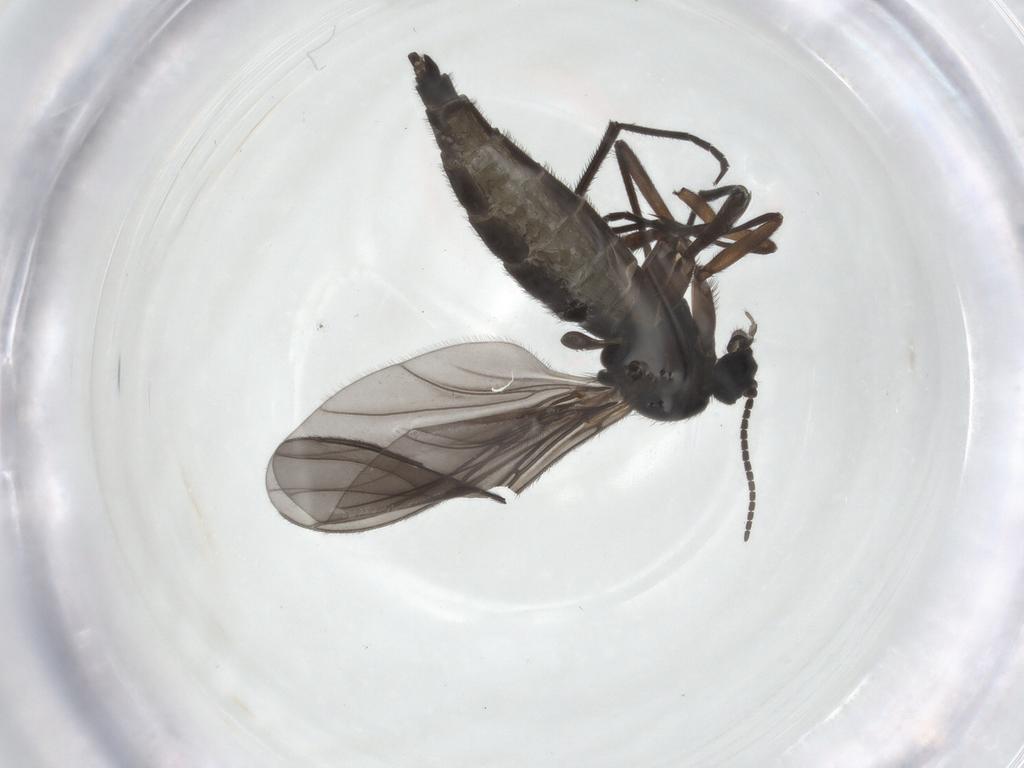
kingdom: Animalia
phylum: Arthropoda
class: Insecta
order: Diptera
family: Sciaridae
